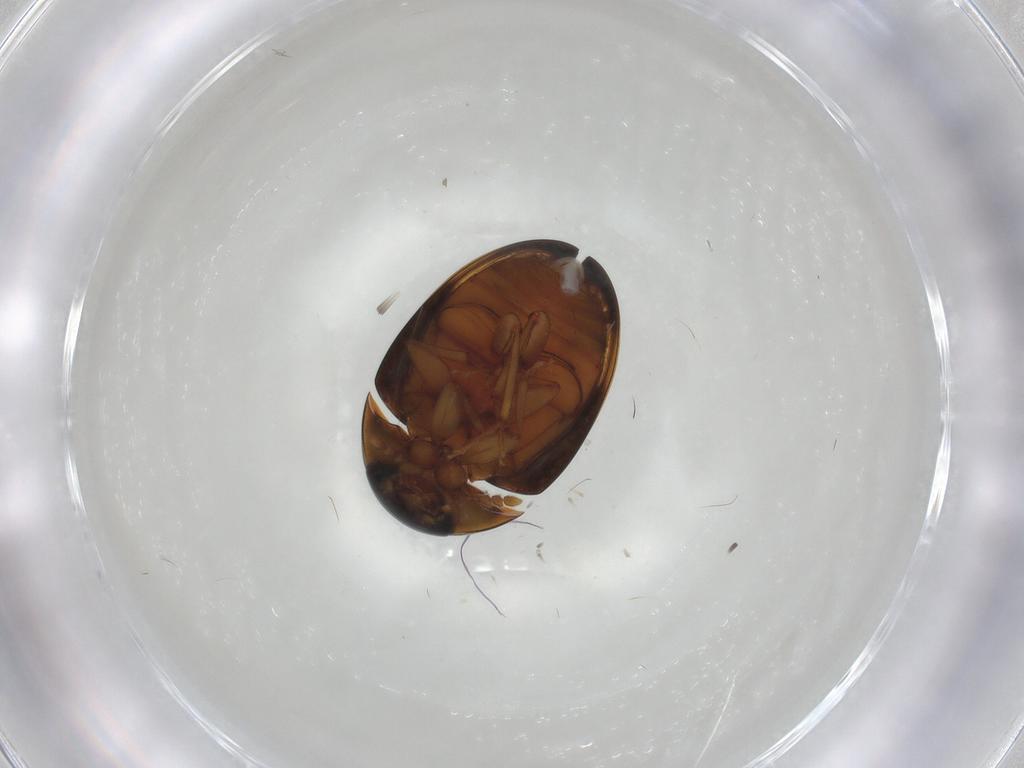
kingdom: Animalia
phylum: Arthropoda
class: Insecta
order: Coleoptera
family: Phalacridae
